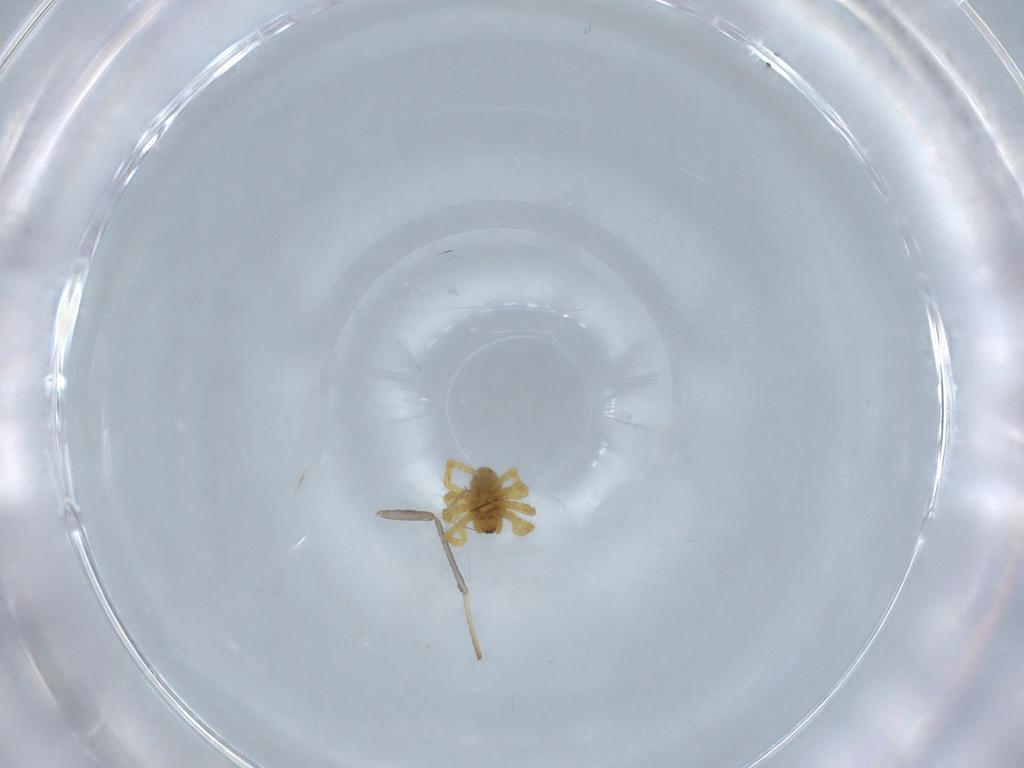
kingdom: Animalia
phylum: Arthropoda
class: Arachnida
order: Araneae
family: Theridiidae
